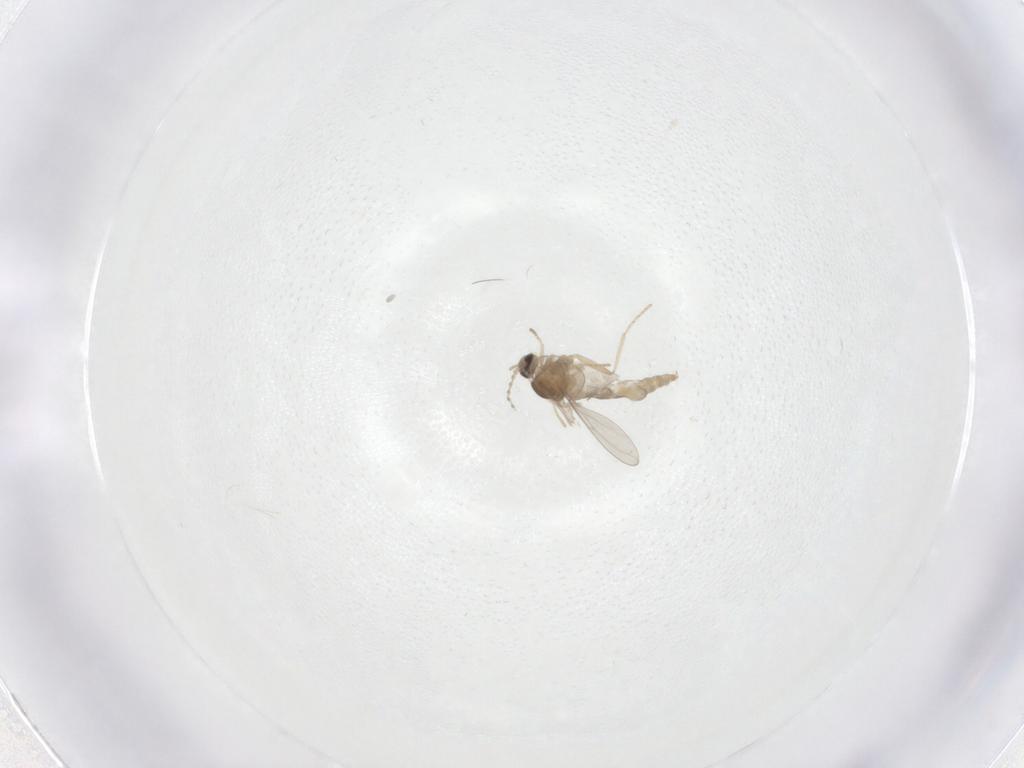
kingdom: Animalia
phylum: Arthropoda
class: Insecta
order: Diptera
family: Cecidomyiidae
